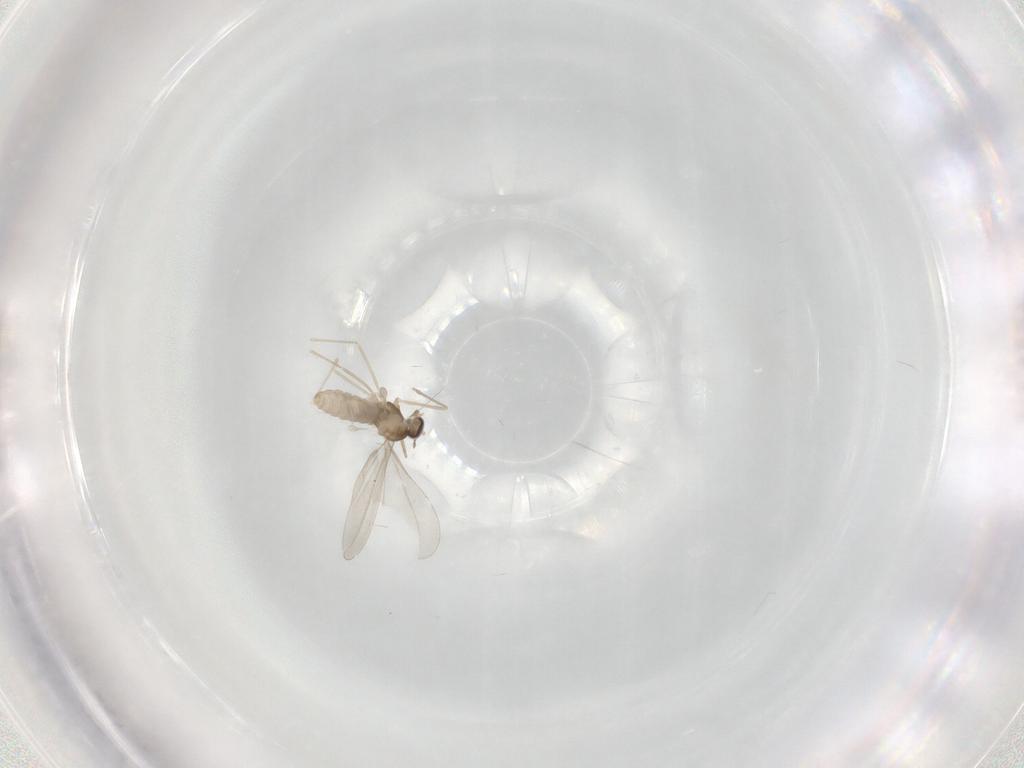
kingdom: Animalia
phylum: Arthropoda
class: Insecta
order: Diptera
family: Cecidomyiidae
